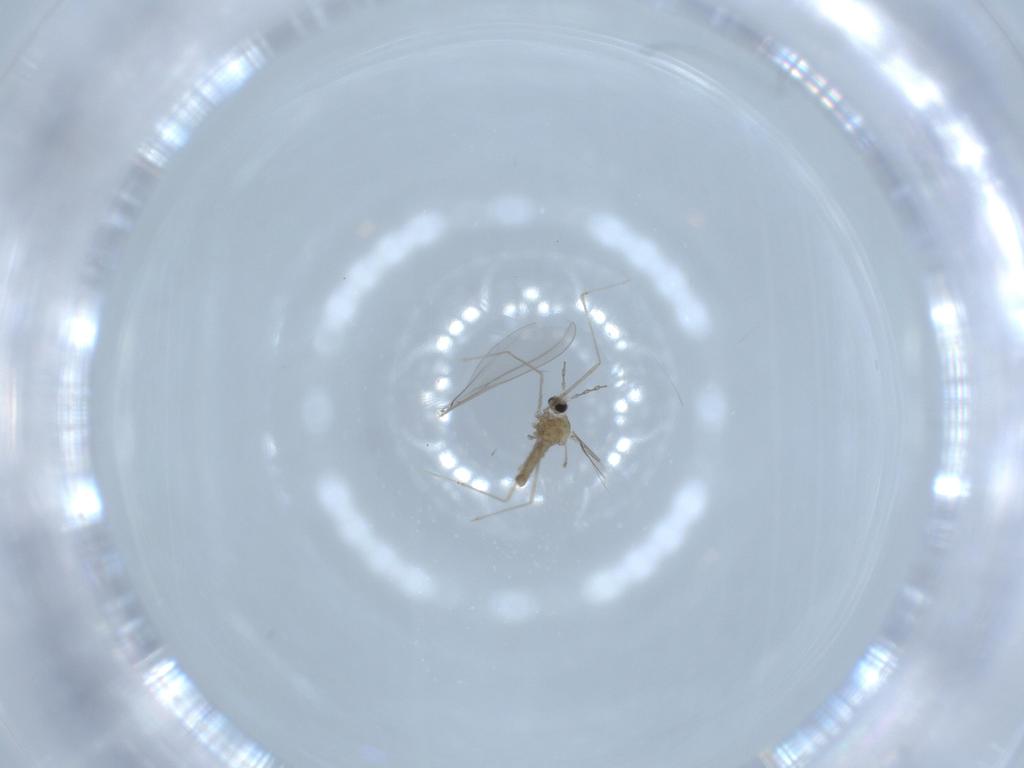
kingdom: Animalia
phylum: Arthropoda
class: Insecta
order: Diptera
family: Cecidomyiidae
